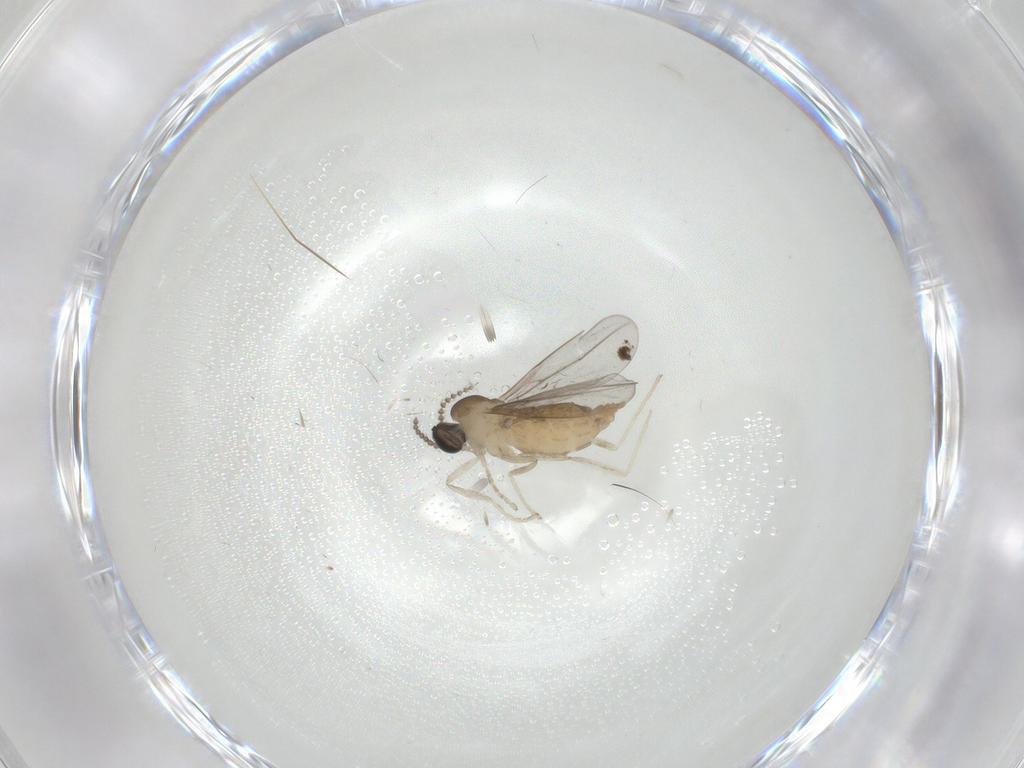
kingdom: Animalia
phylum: Arthropoda
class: Insecta
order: Diptera
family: Cecidomyiidae
